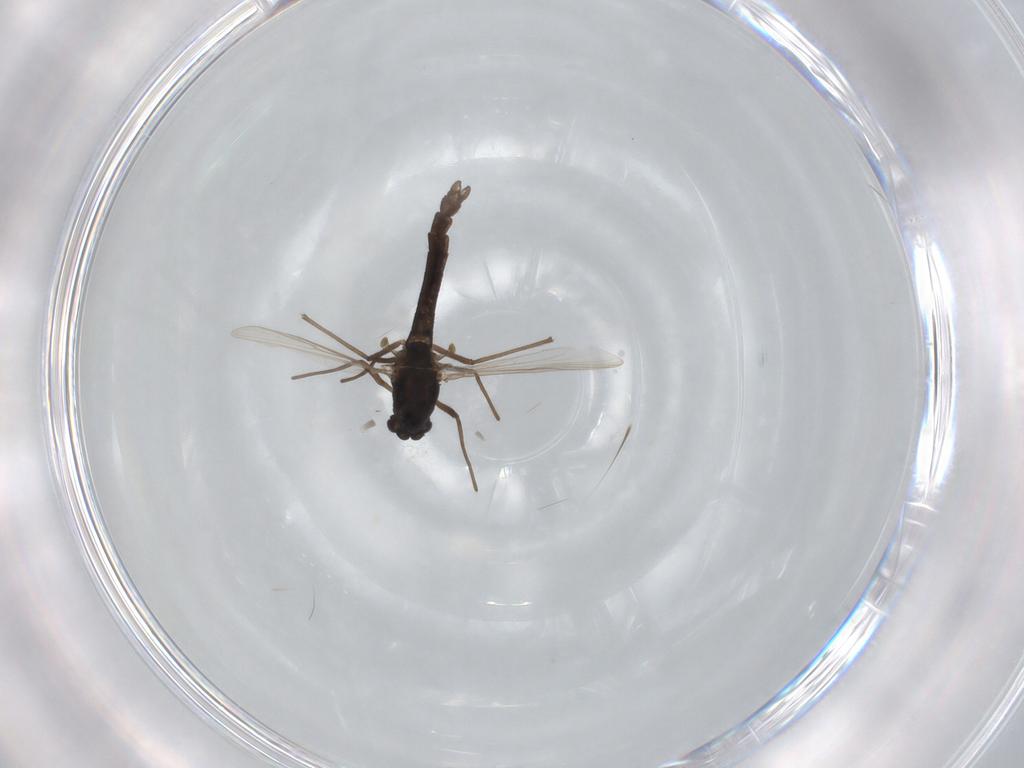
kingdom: Animalia
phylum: Arthropoda
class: Insecta
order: Diptera
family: Chironomidae
